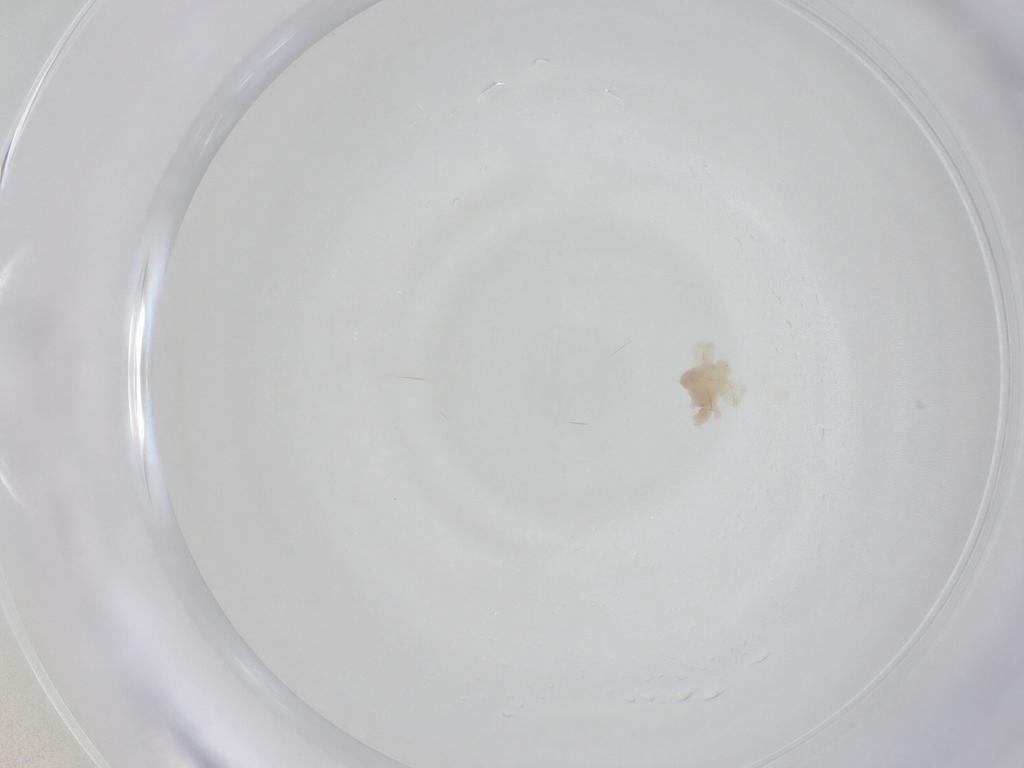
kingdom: Animalia
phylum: Arthropoda
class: Arachnida
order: Trombidiformes
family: Anystidae
